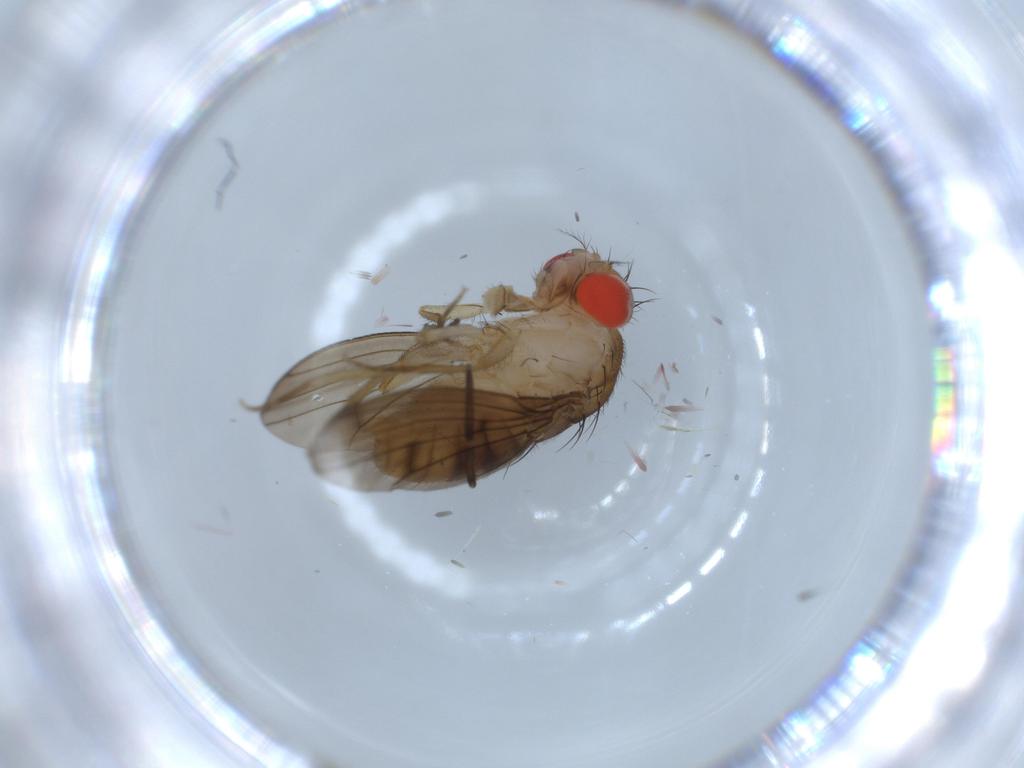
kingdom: Animalia
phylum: Arthropoda
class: Insecta
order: Diptera
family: Drosophilidae
